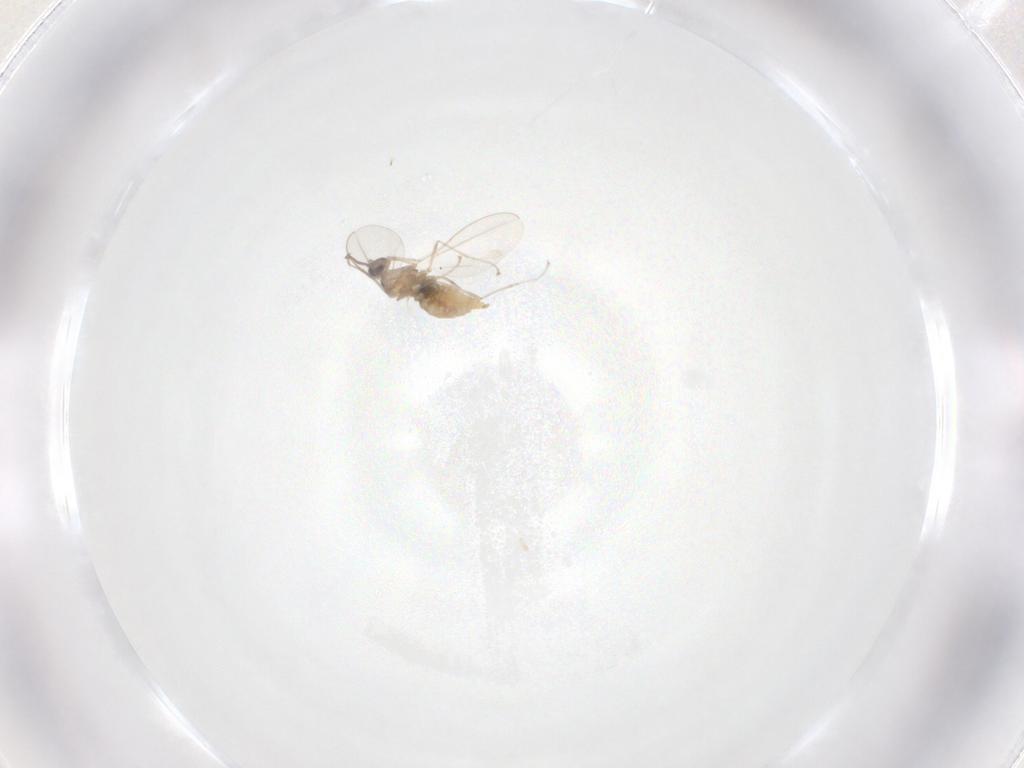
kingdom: Animalia
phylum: Arthropoda
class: Insecta
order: Diptera
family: Cecidomyiidae
